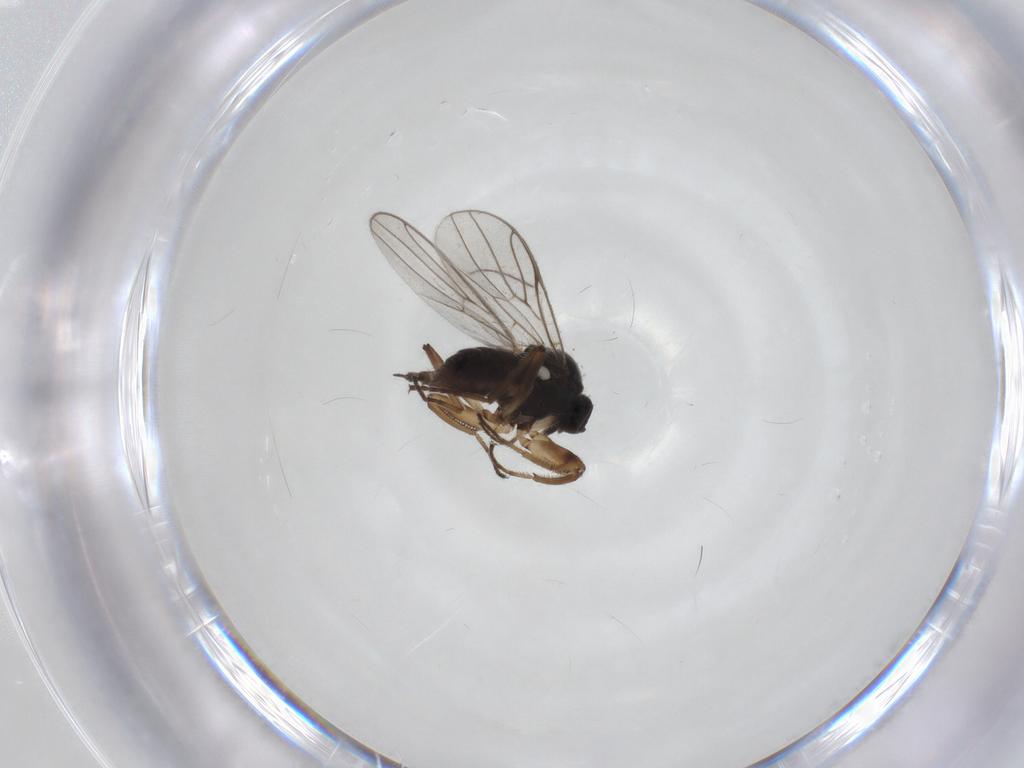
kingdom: Animalia
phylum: Arthropoda
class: Insecta
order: Diptera
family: Hybotidae
